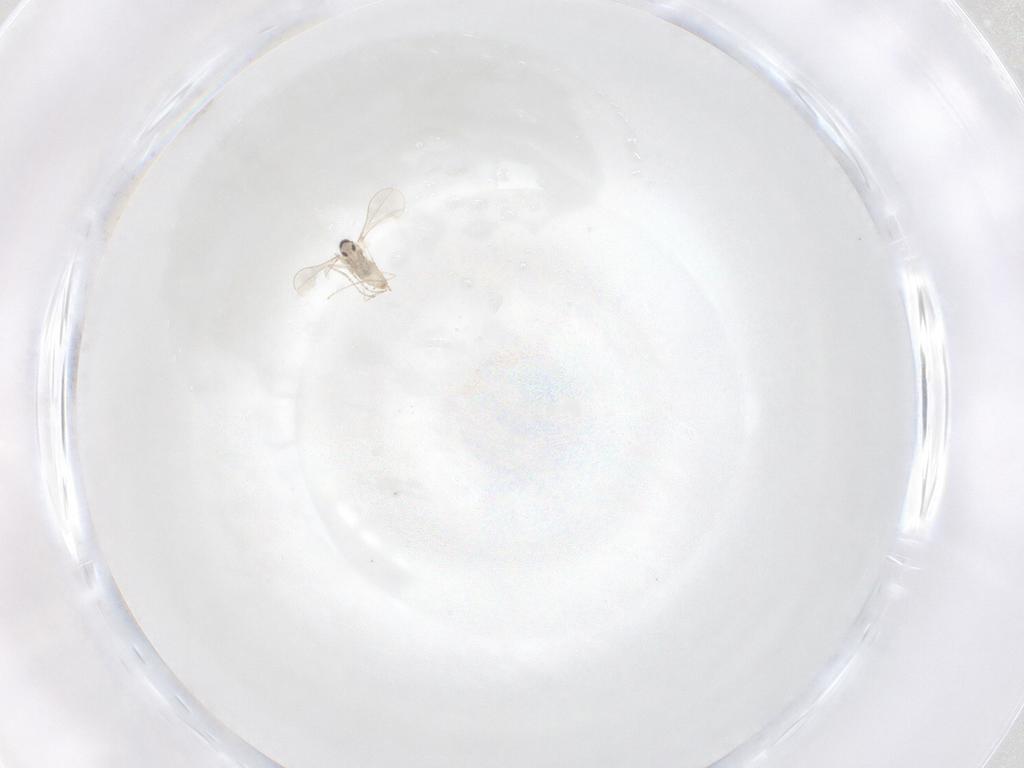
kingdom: Animalia
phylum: Arthropoda
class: Insecta
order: Diptera
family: Cecidomyiidae
